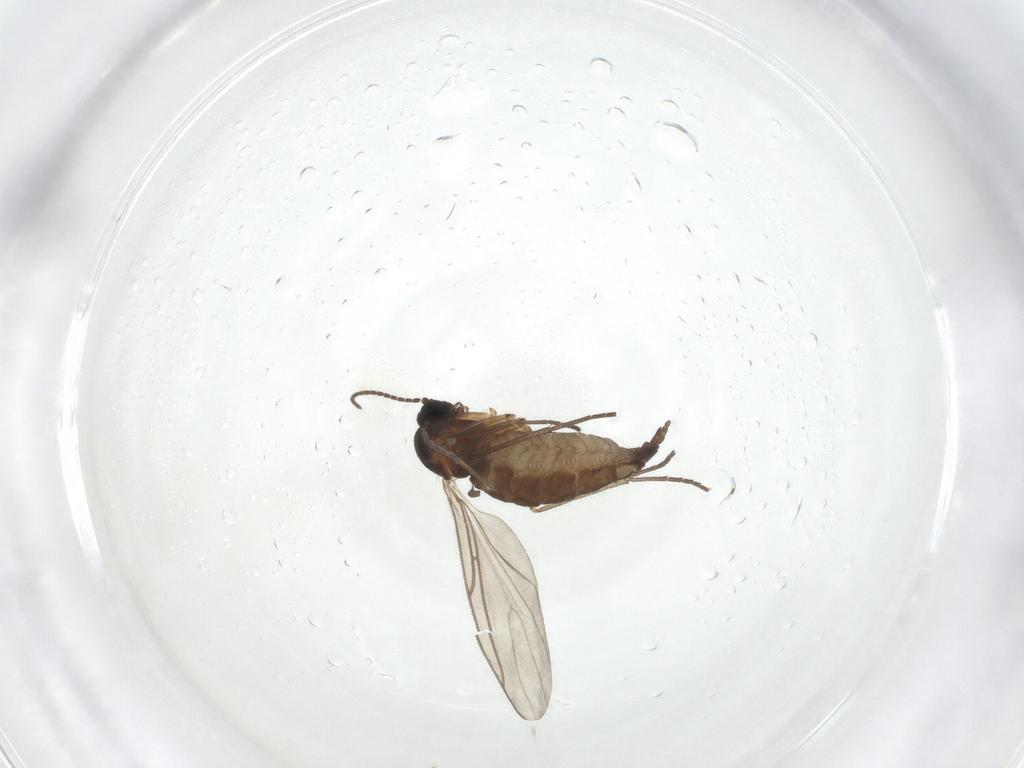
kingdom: Animalia
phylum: Arthropoda
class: Insecta
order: Diptera
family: Sciaridae
